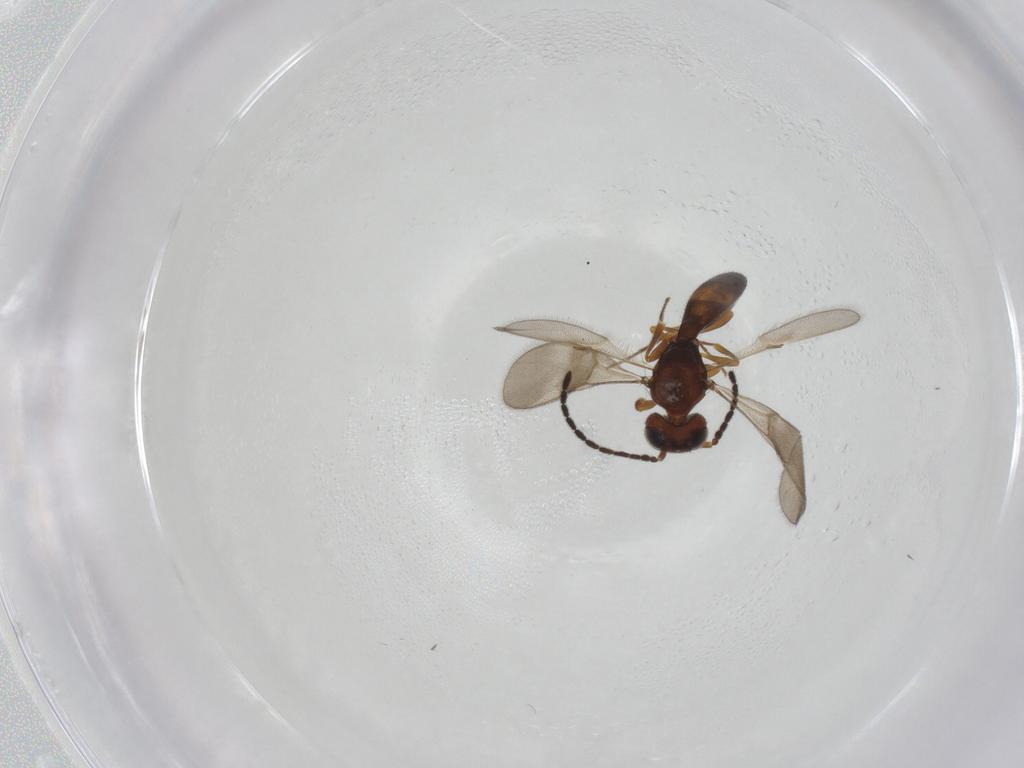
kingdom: Animalia
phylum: Arthropoda
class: Insecta
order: Hymenoptera
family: Scelionidae
